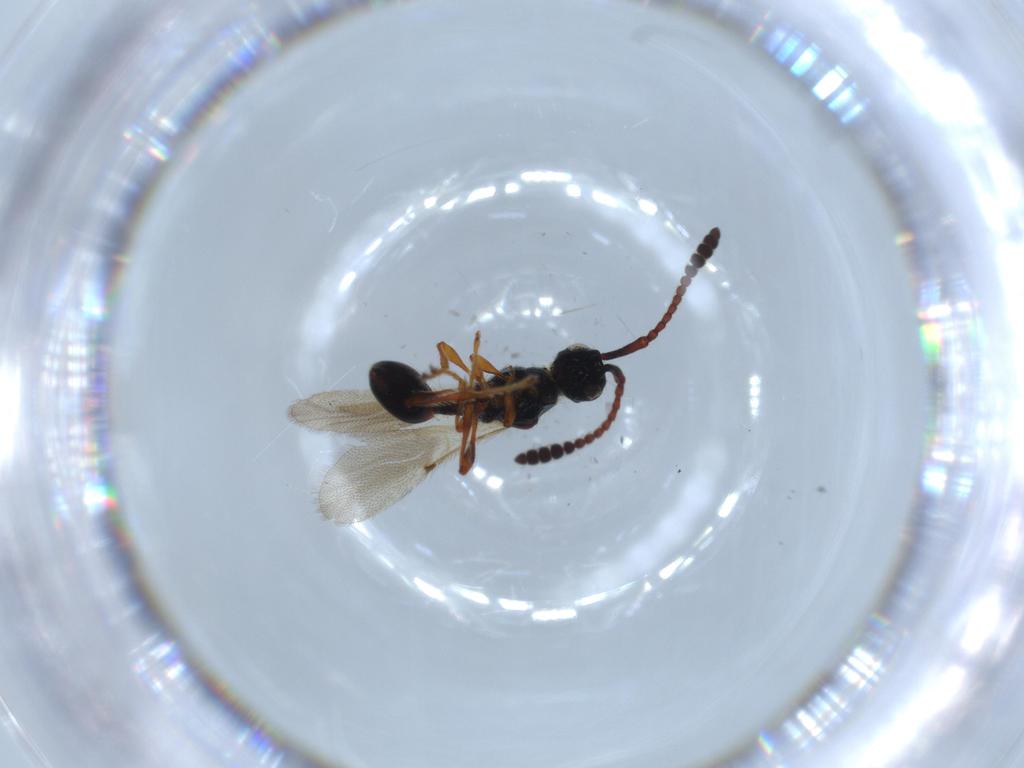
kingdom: Animalia
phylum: Arthropoda
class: Insecta
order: Hymenoptera
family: Diapriidae
